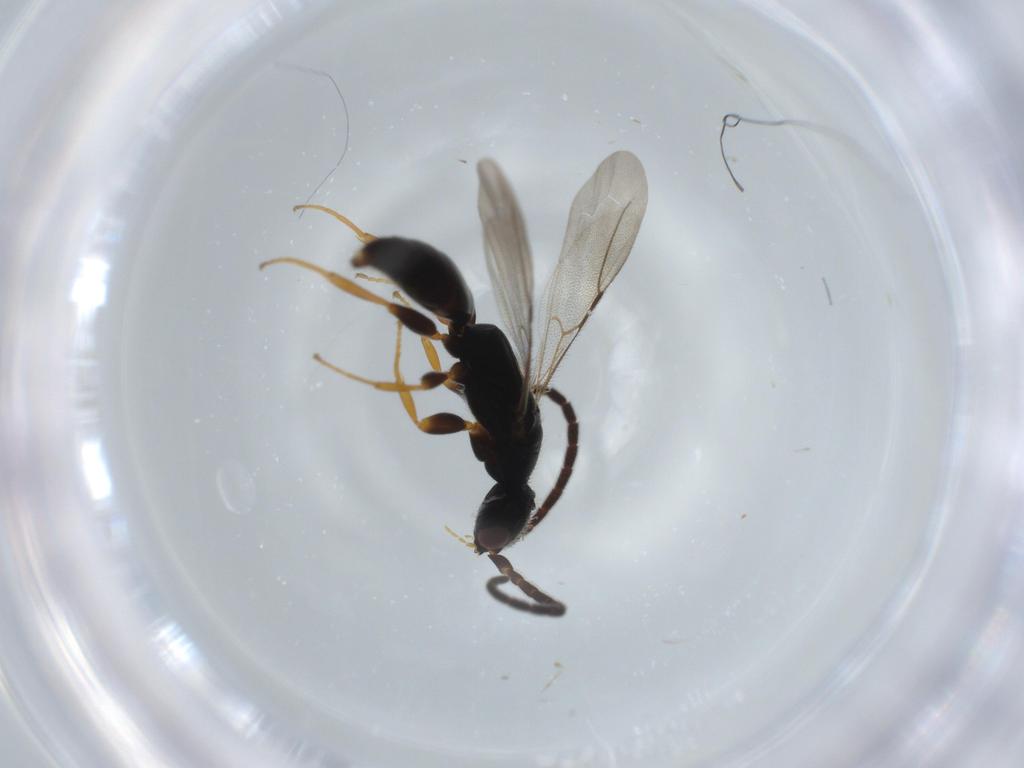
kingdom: Animalia
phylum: Arthropoda
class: Insecta
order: Hymenoptera
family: Bethylidae
